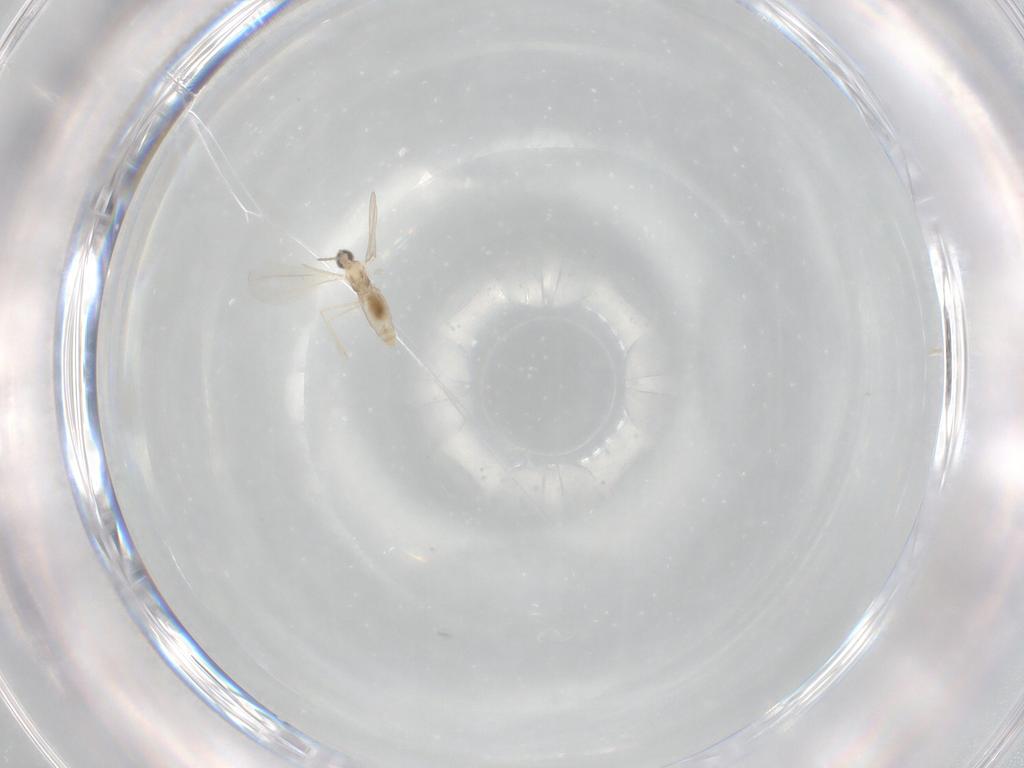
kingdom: Animalia
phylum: Arthropoda
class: Insecta
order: Diptera
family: Cecidomyiidae
